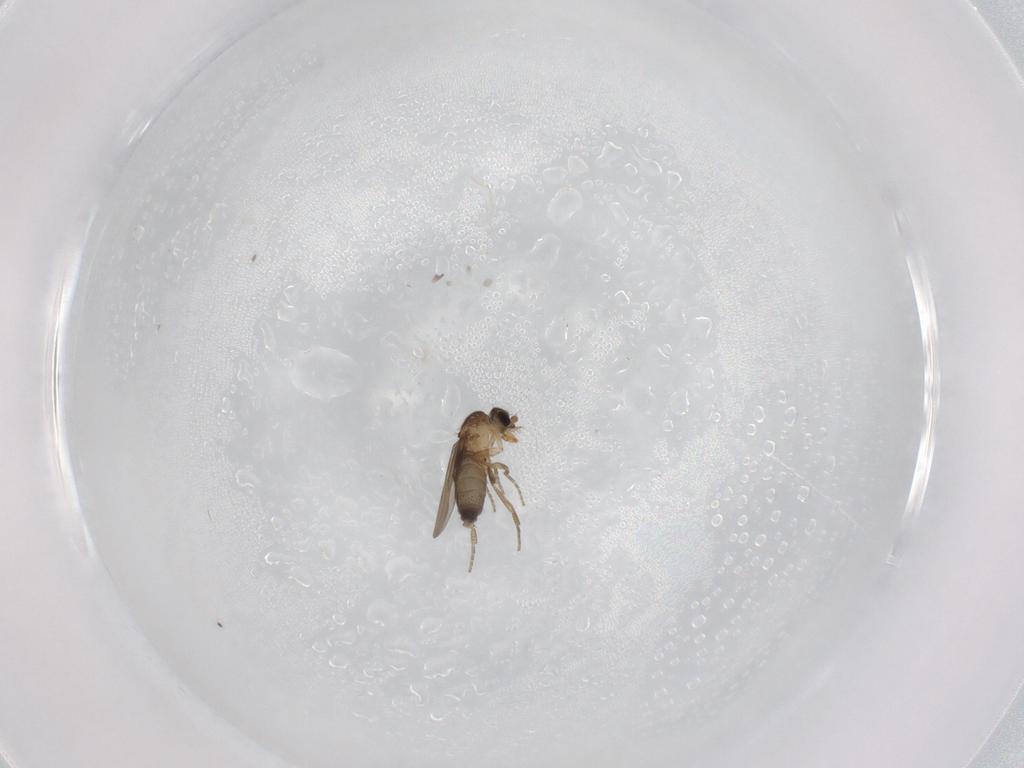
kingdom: Animalia
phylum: Arthropoda
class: Insecta
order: Diptera
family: Phoridae
